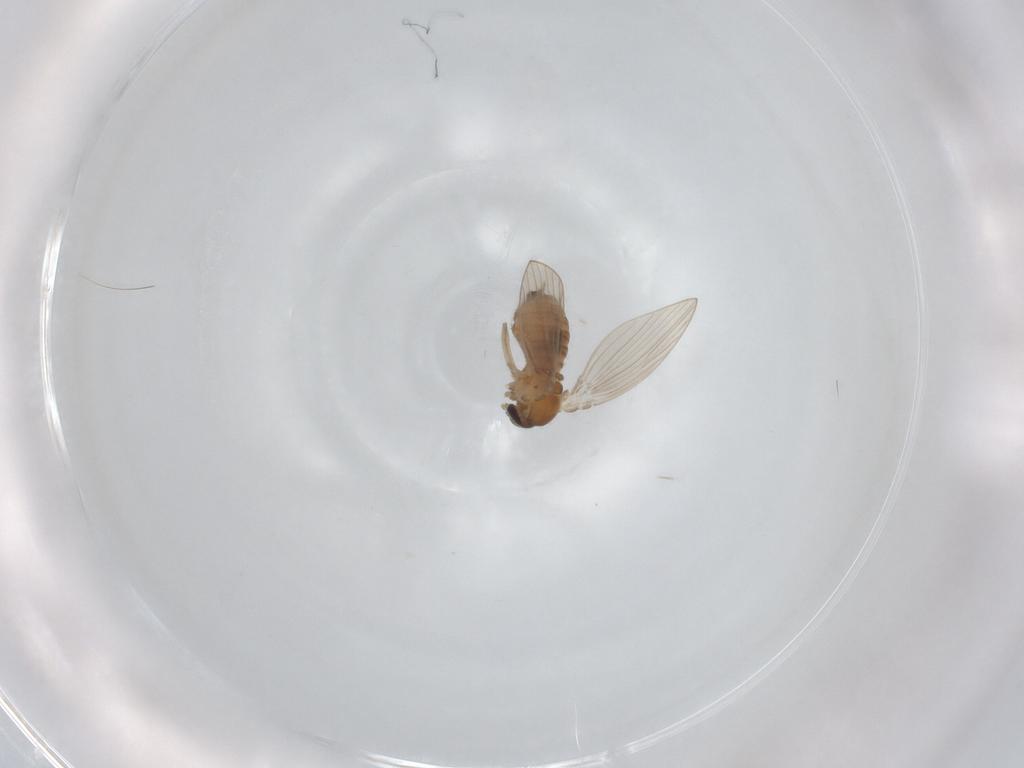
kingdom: Animalia
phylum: Arthropoda
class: Insecta
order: Diptera
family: Psychodidae
